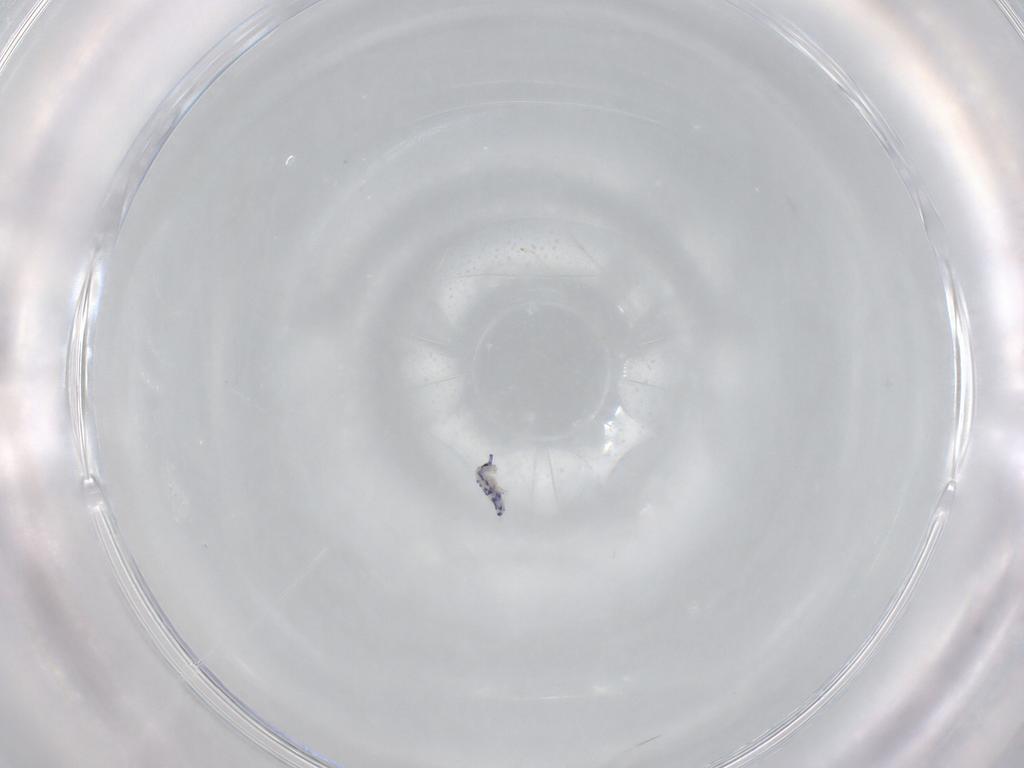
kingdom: Animalia
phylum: Arthropoda
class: Collembola
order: Entomobryomorpha
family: Entomobryidae
